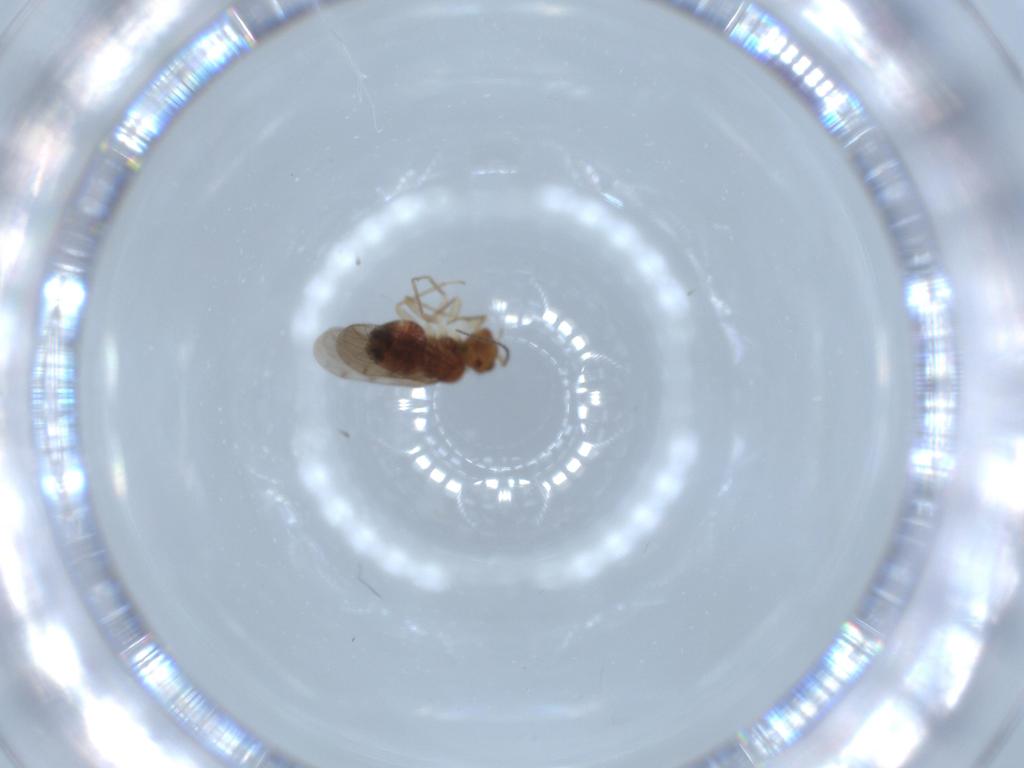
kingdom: Animalia
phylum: Arthropoda
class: Insecta
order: Psocodea
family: Ectopsocidae
